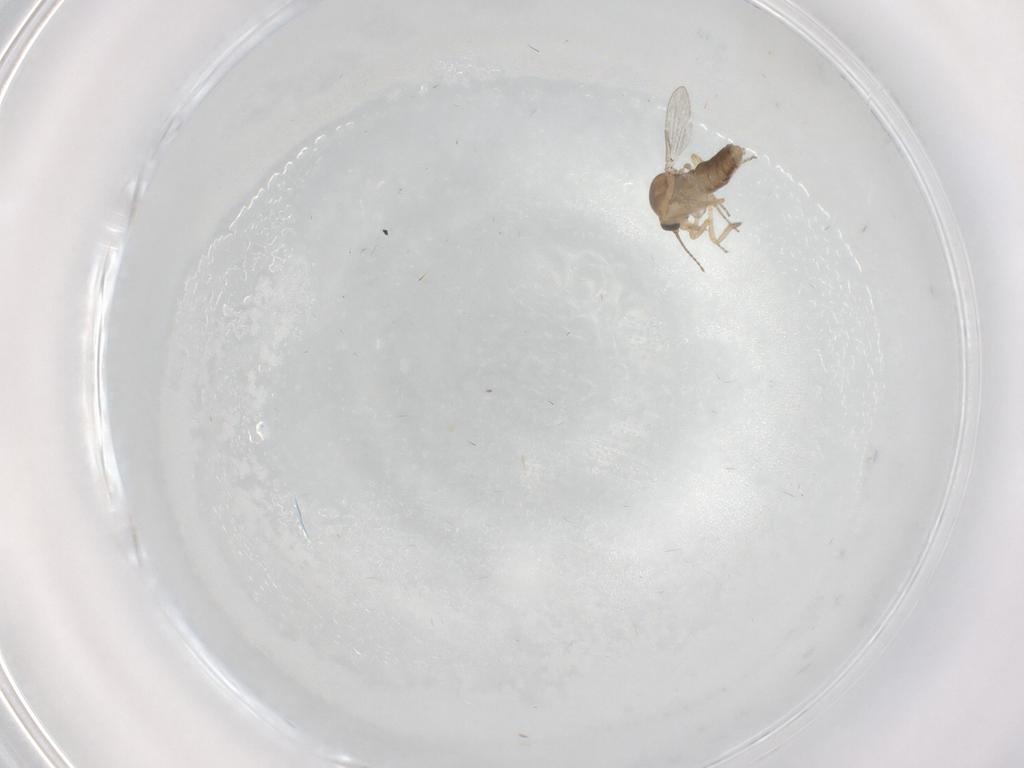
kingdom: Animalia
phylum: Arthropoda
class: Insecta
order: Diptera
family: Ceratopogonidae
